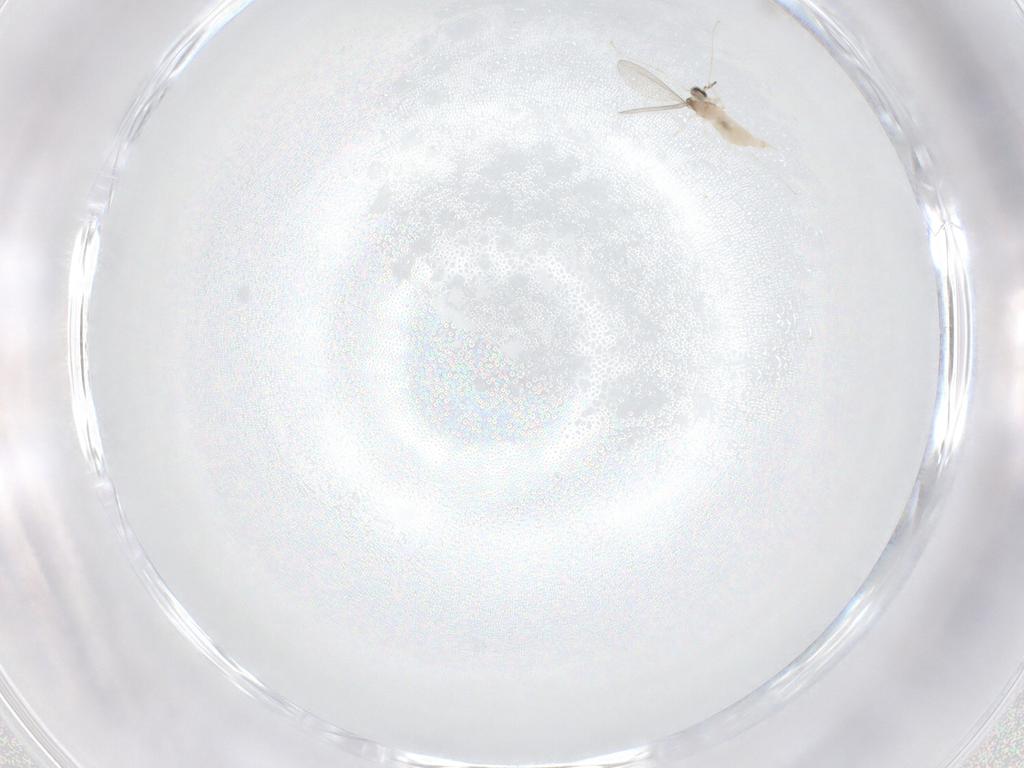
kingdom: Animalia
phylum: Arthropoda
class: Insecta
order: Diptera
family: Cecidomyiidae
